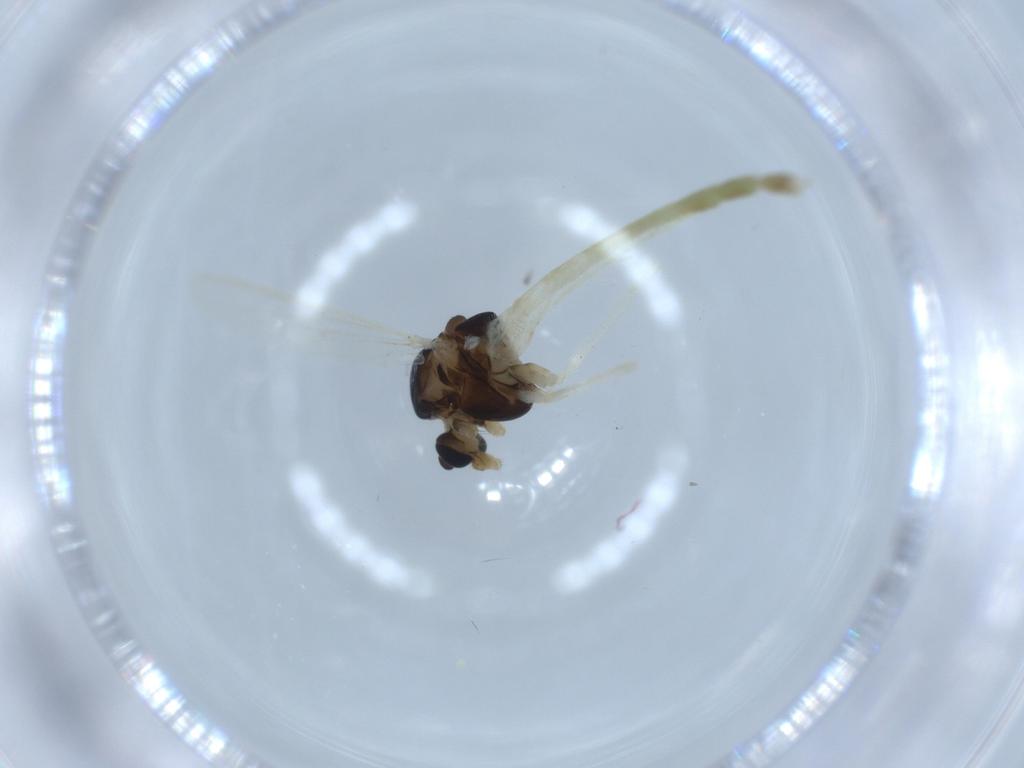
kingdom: Animalia
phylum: Arthropoda
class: Insecta
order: Diptera
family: Chironomidae
